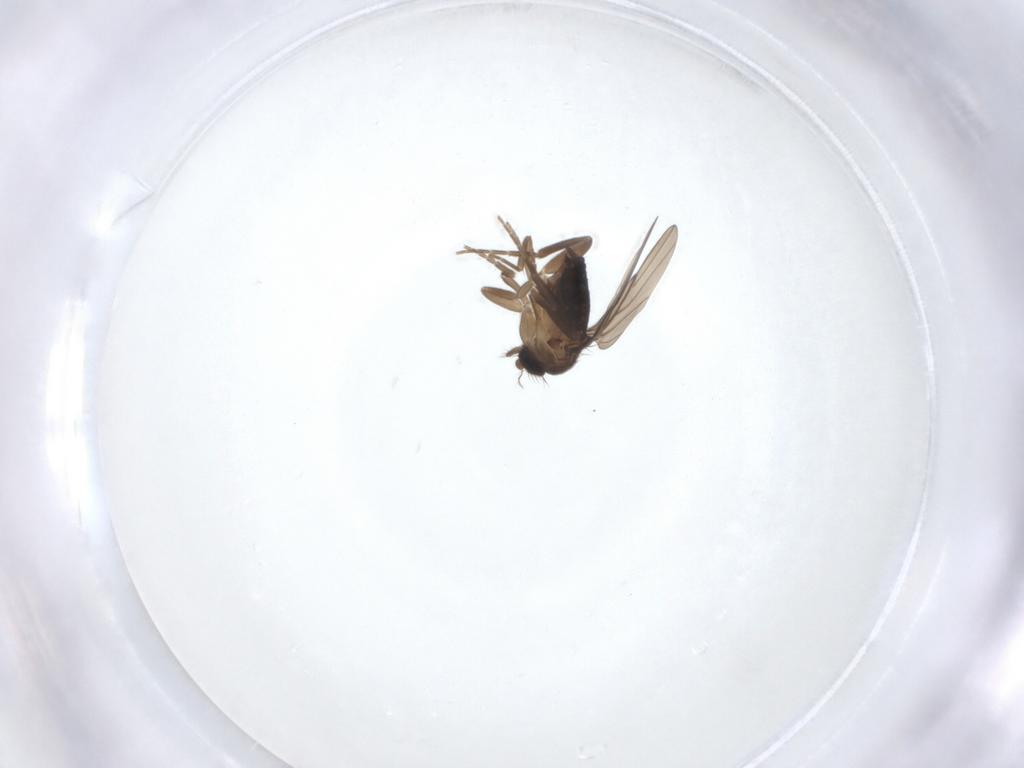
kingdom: Animalia
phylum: Arthropoda
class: Insecta
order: Diptera
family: Phoridae
